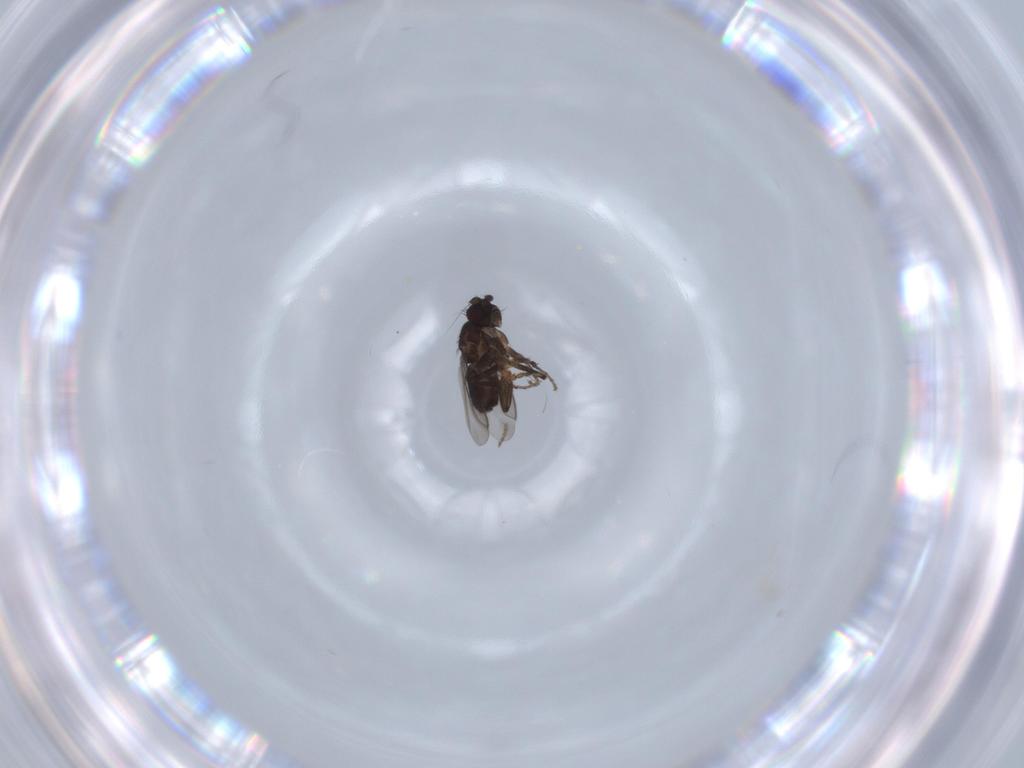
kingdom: Animalia
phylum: Arthropoda
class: Insecta
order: Diptera
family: Sphaeroceridae
